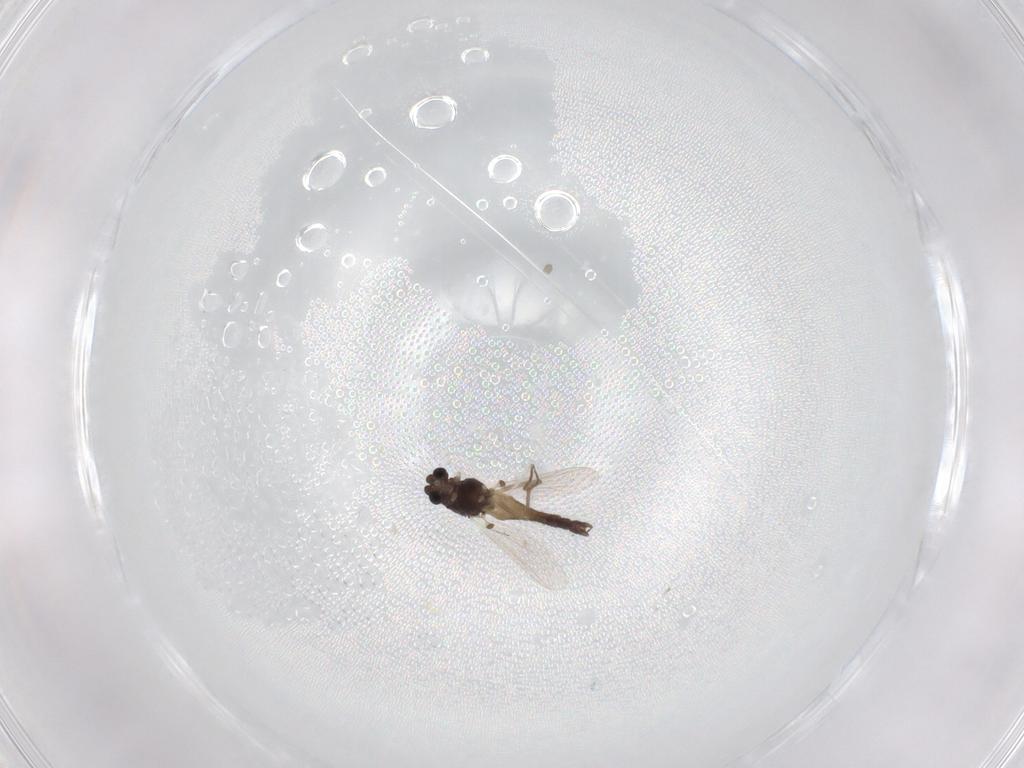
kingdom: Animalia
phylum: Arthropoda
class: Insecta
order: Diptera
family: Chironomidae
